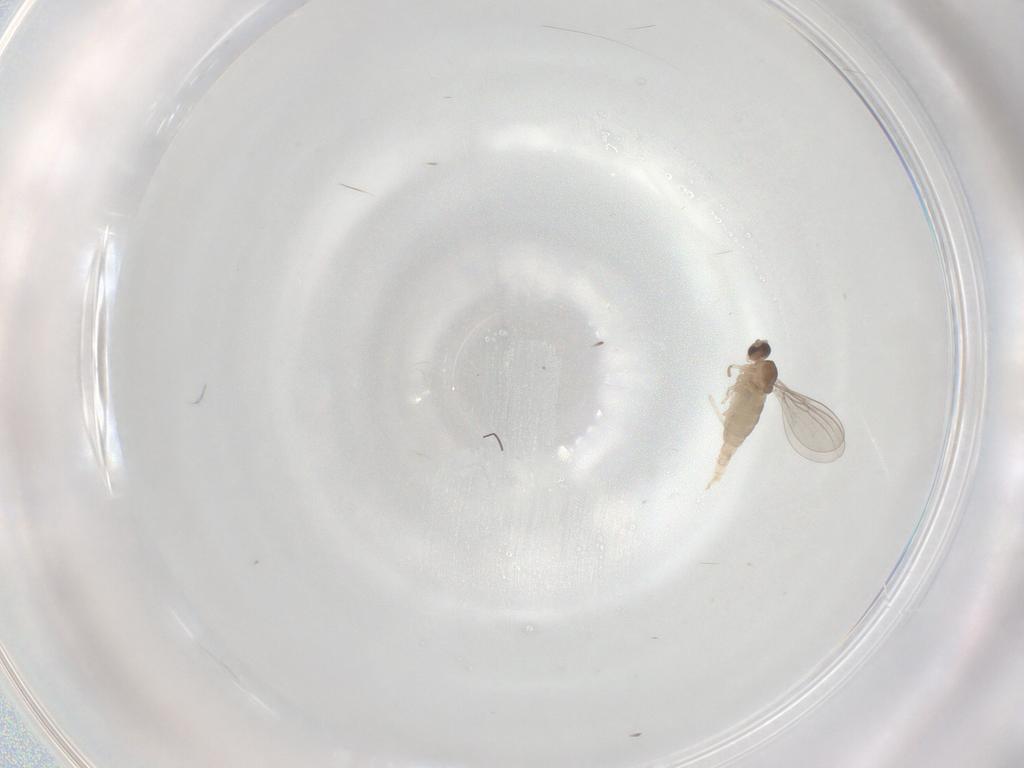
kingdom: Animalia
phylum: Arthropoda
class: Insecta
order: Diptera
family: Cecidomyiidae
